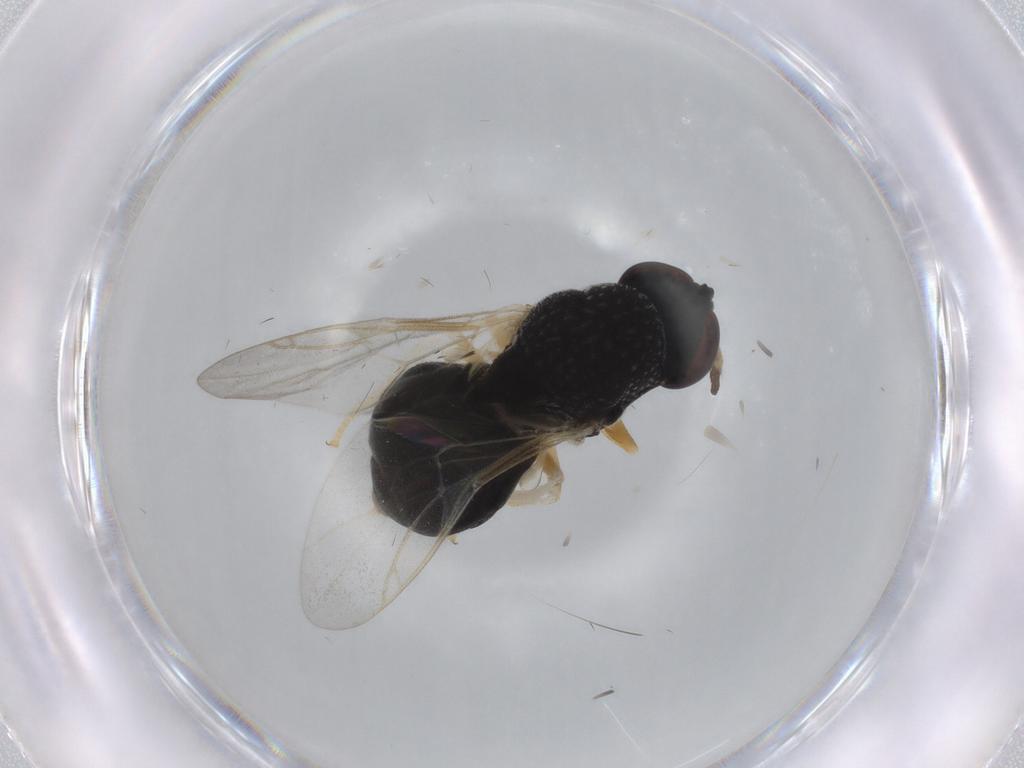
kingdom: Animalia
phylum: Arthropoda
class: Insecta
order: Diptera
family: Stratiomyidae
